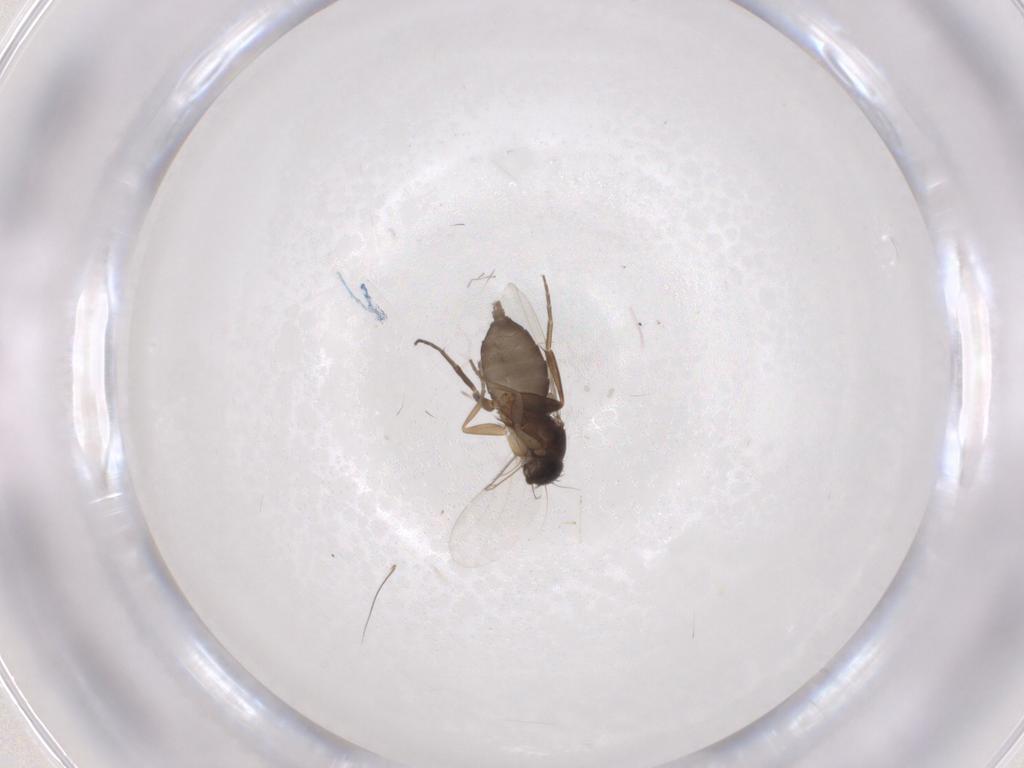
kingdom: Animalia
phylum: Arthropoda
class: Insecta
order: Diptera
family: Phoridae
